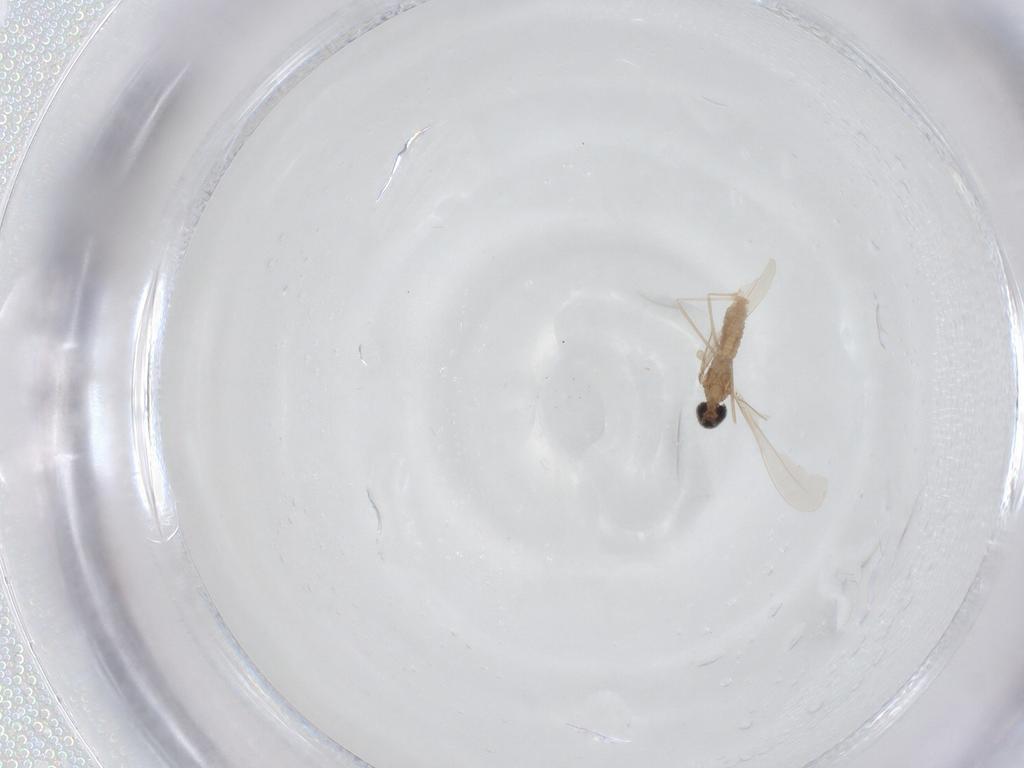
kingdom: Animalia
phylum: Arthropoda
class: Insecta
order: Diptera
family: Cecidomyiidae
